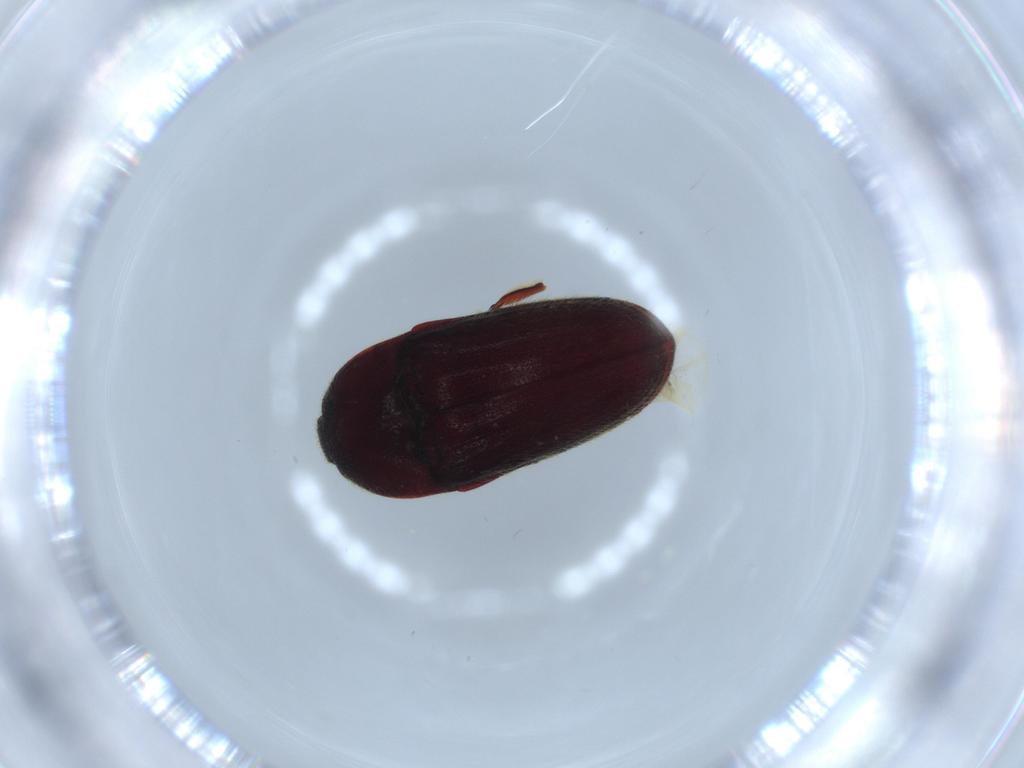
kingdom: Animalia
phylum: Arthropoda
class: Insecta
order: Coleoptera
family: Throscidae
